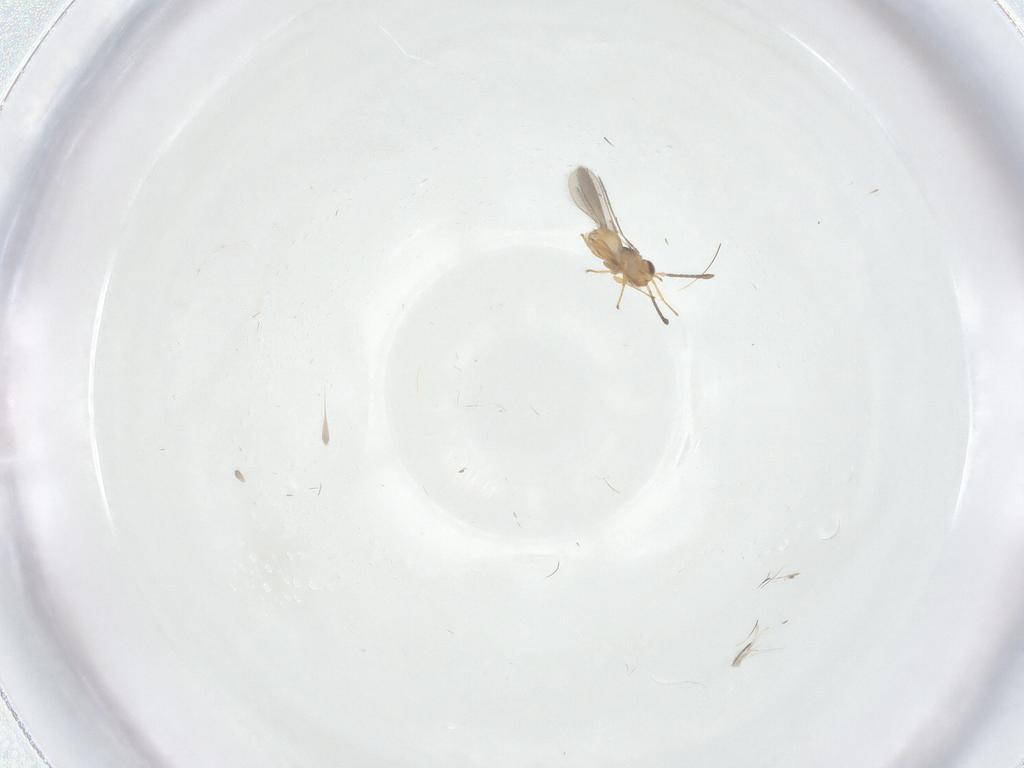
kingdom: Animalia
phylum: Arthropoda
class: Insecta
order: Hymenoptera
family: Mymaridae
